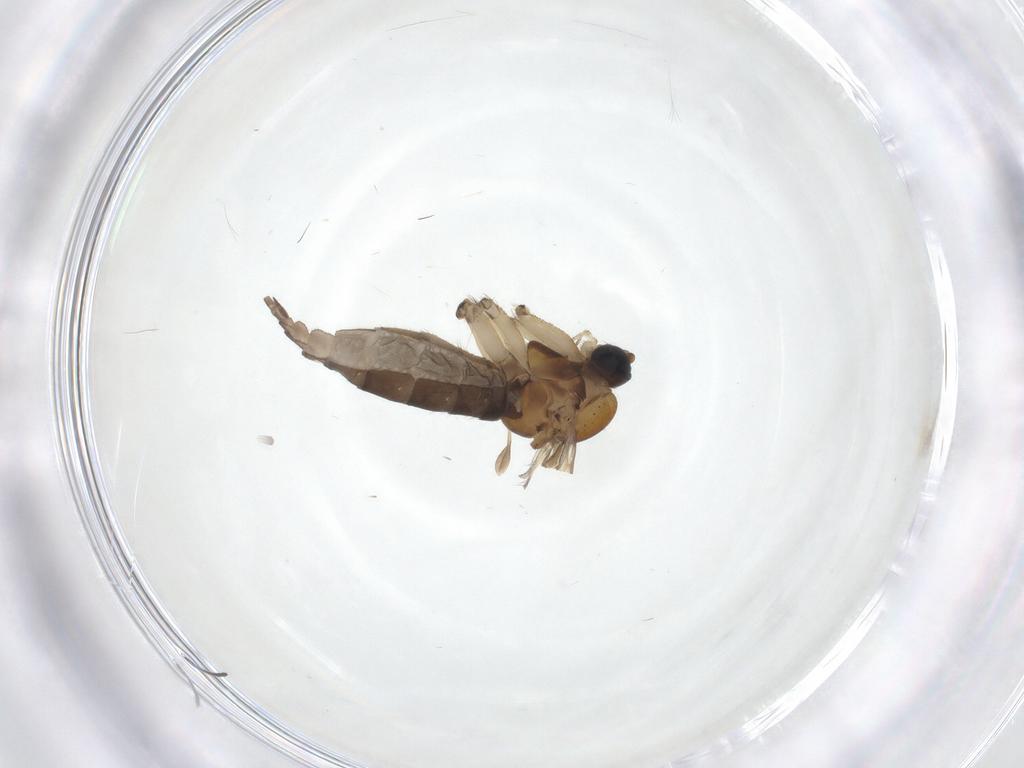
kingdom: Animalia
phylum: Arthropoda
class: Insecta
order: Diptera
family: Sciaridae
